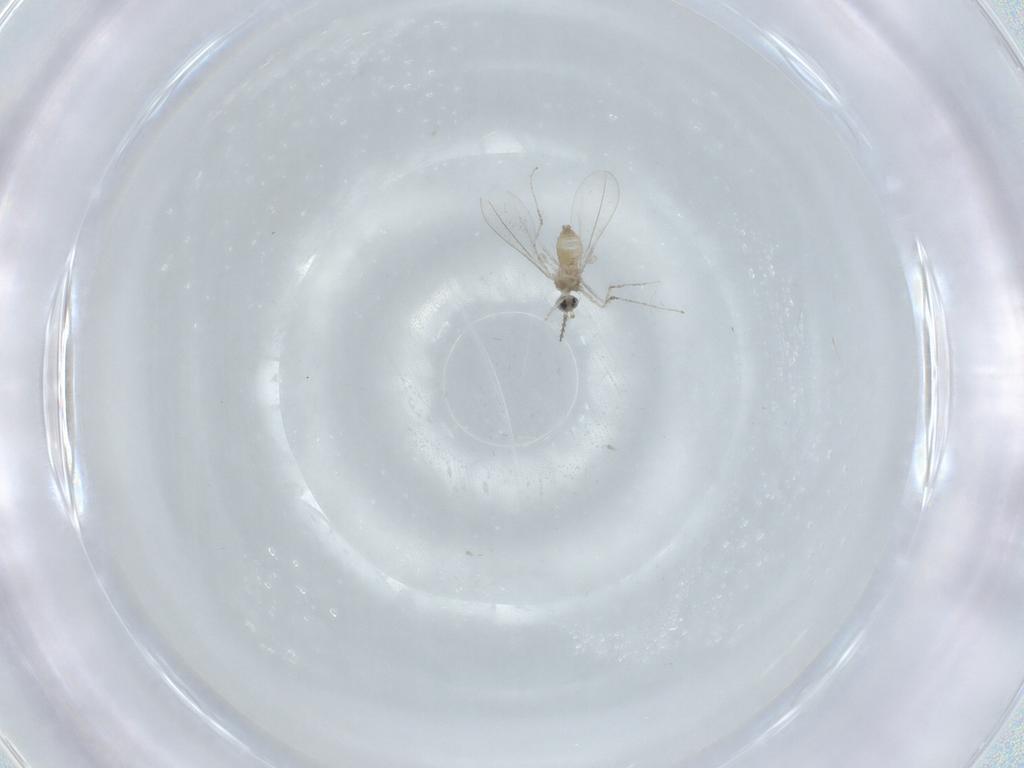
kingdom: Animalia
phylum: Arthropoda
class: Insecta
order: Diptera
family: Cecidomyiidae
